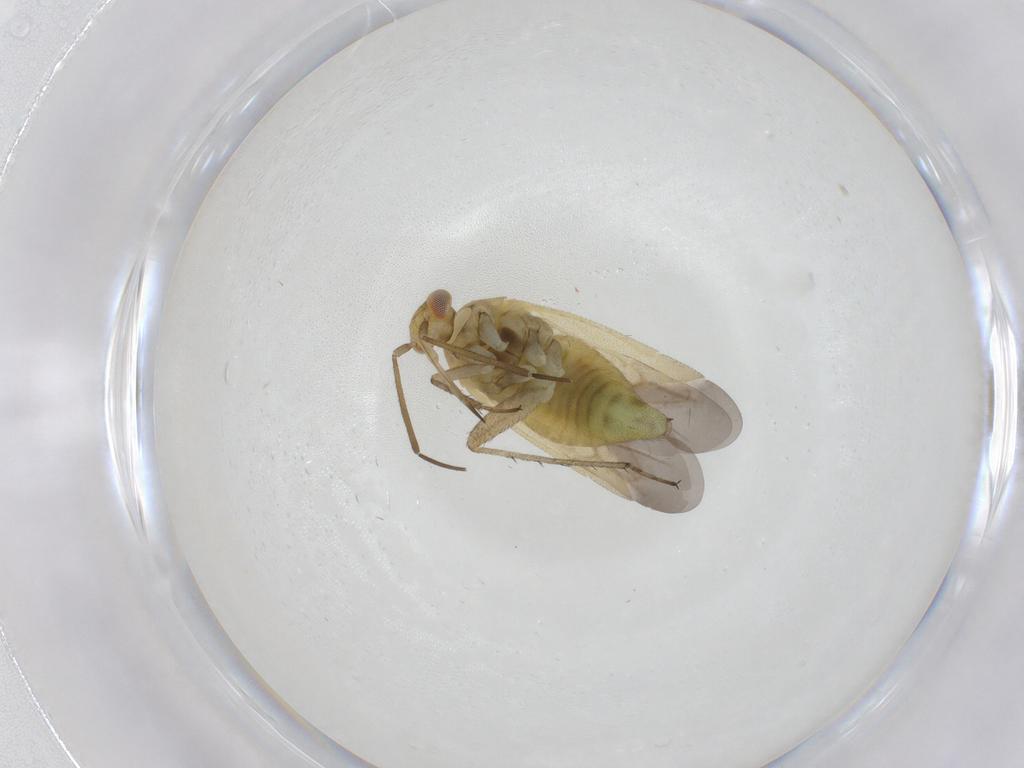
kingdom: Animalia
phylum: Arthropoda
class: Insecta
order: Hemiptera
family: Miridae
